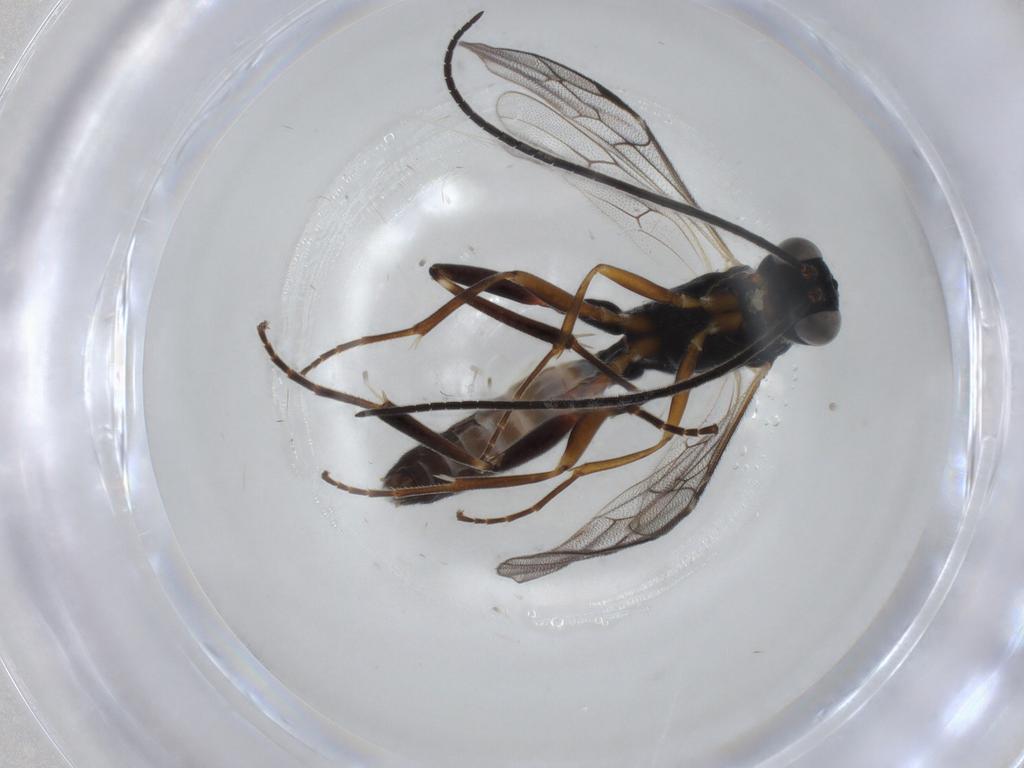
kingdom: Animalia
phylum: Arthropoda
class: Insecta
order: Hymenoptera
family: Ichneumonidae
